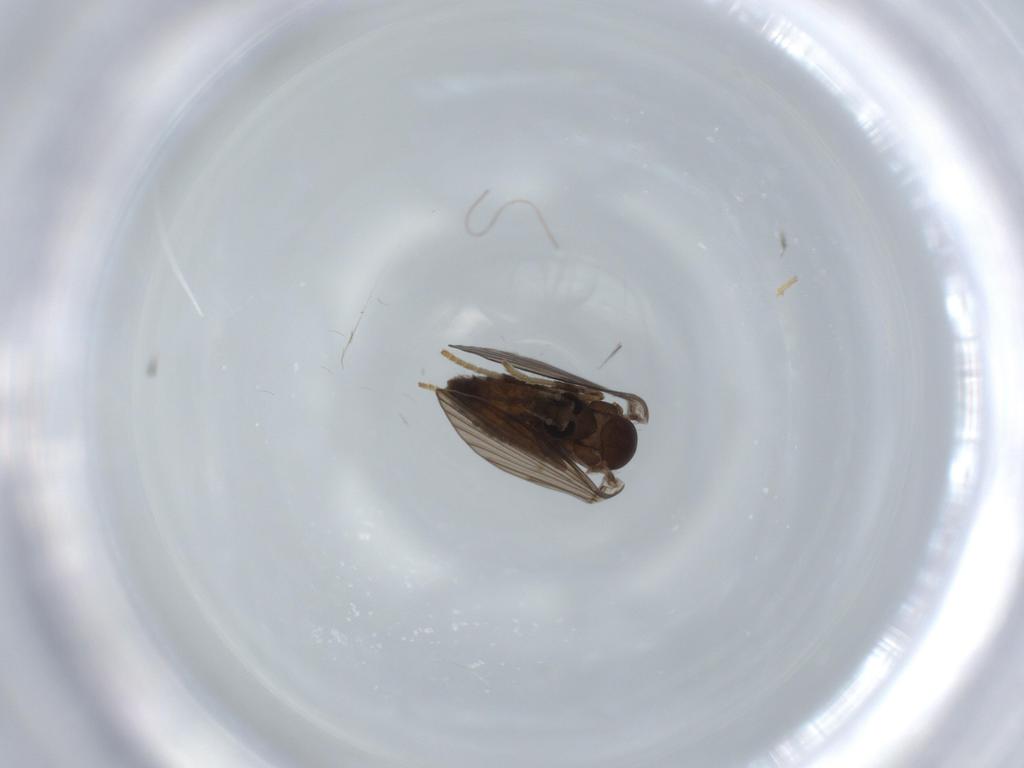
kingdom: Animalia
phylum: Arthropoda
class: Insecta
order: Diptera
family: Psychodidae
